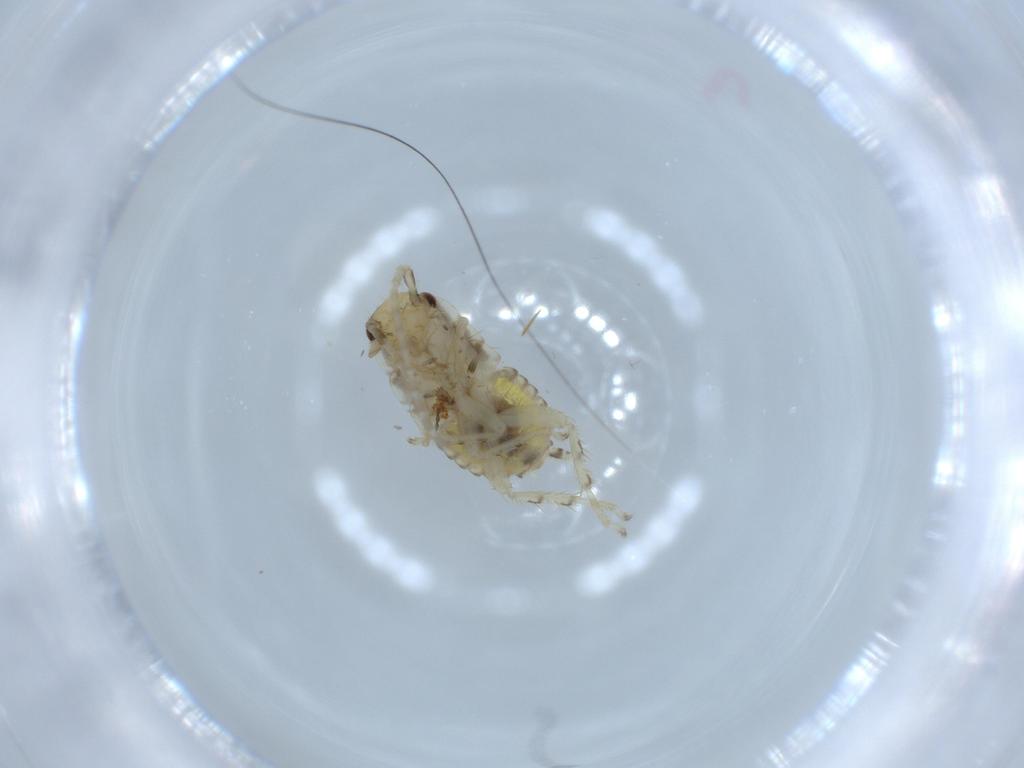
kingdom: Animalia
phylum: Arthropoda
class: Insecta
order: Blattodea
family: Ectobiidae
